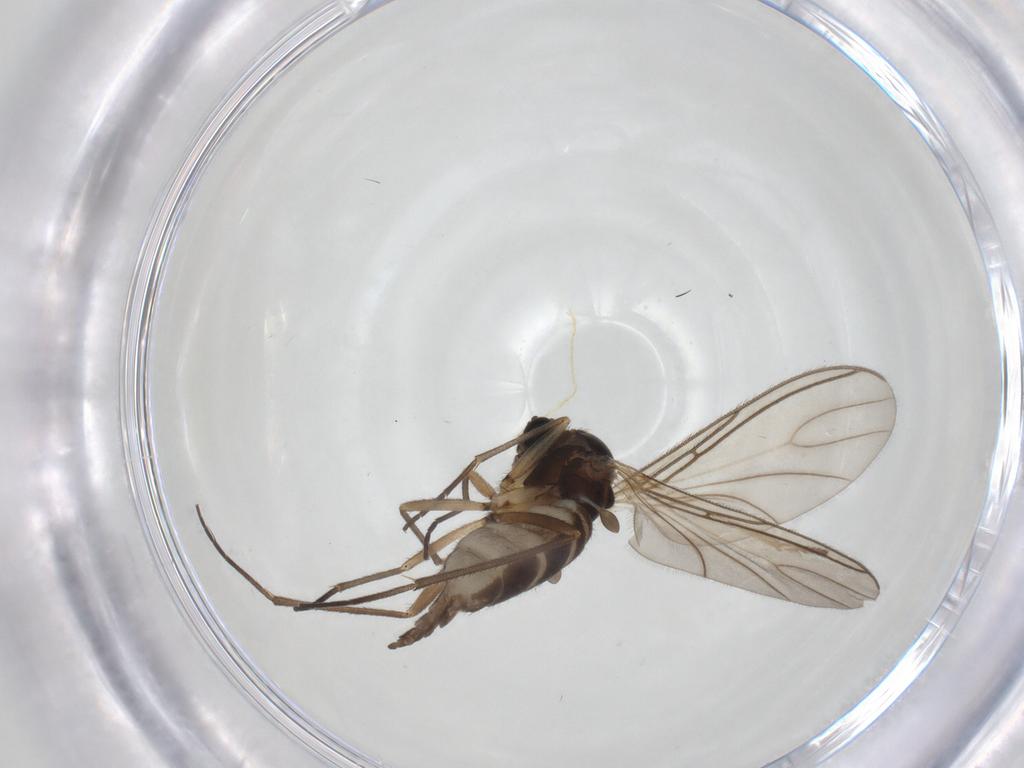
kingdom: Animalia
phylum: Arthropoda
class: Insecta
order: Diptera
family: Sciaridae
